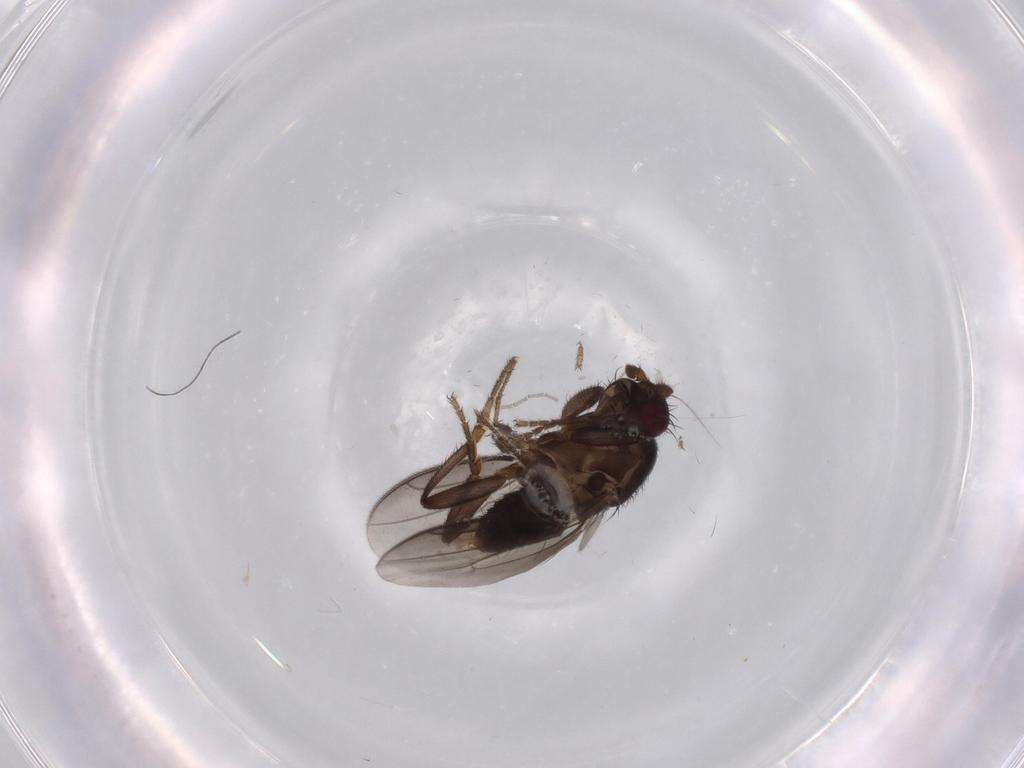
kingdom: Animalia
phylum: Arthropoda
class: Insecta
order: Diptera
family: Sphaeroceridae
